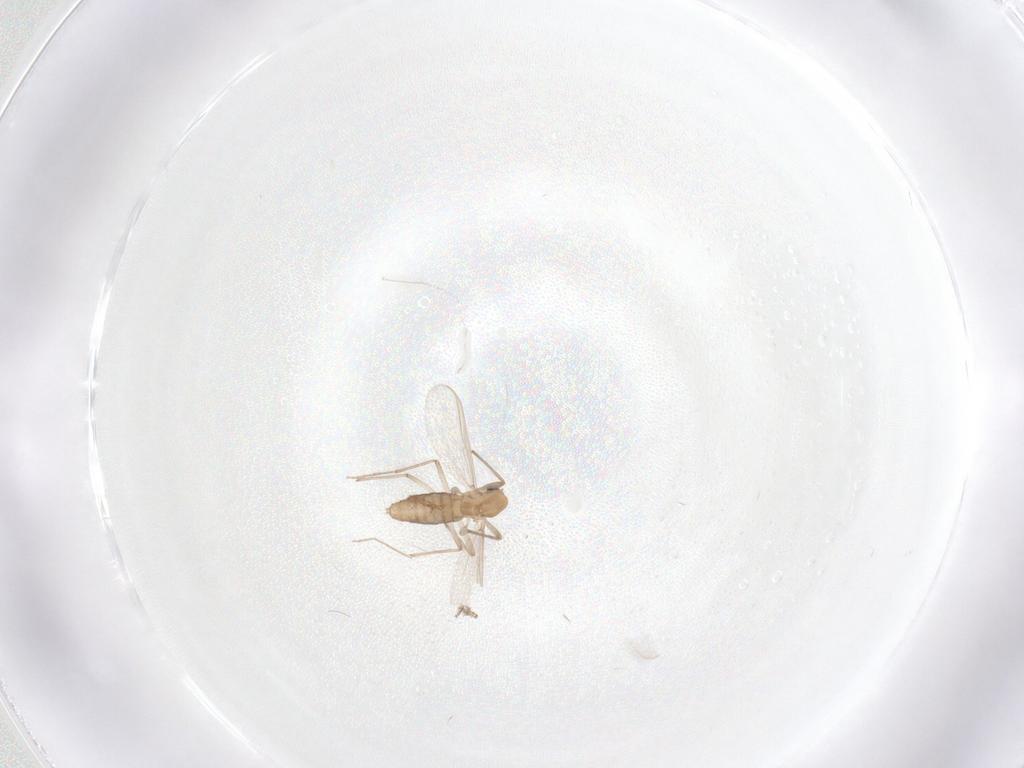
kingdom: Animalia
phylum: Arthropoda
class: Insecta
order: Diptera
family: Chironomidae
